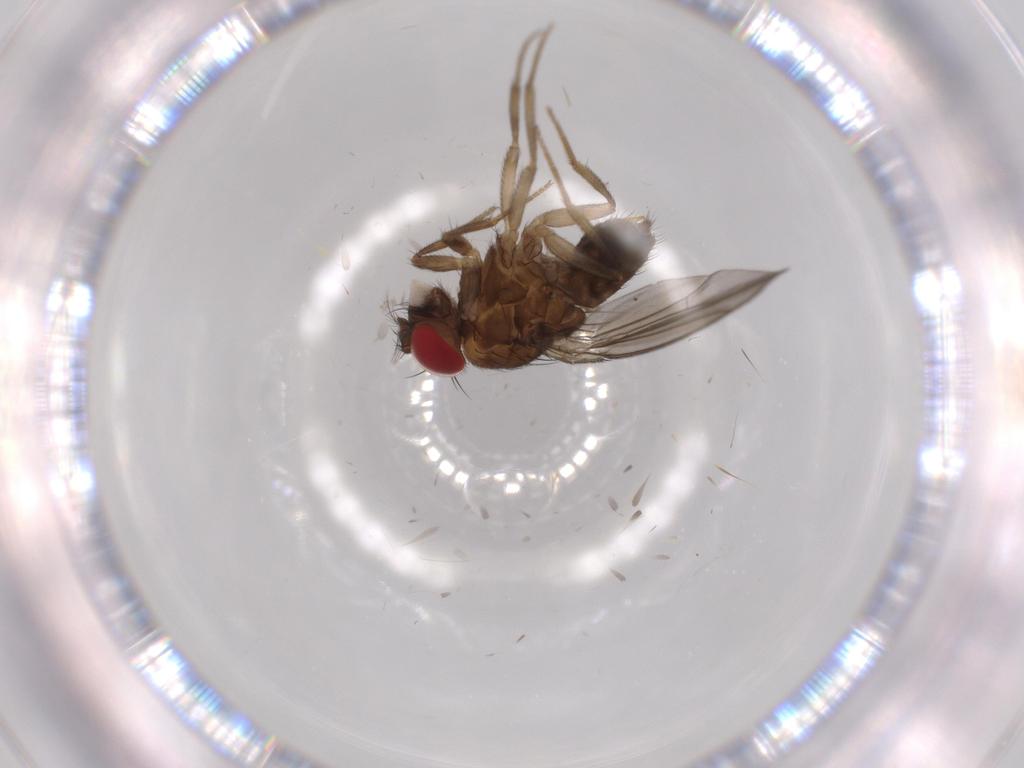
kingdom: Animalia
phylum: Arthropoda
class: Insecta
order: Diptera
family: Drosophilidae
